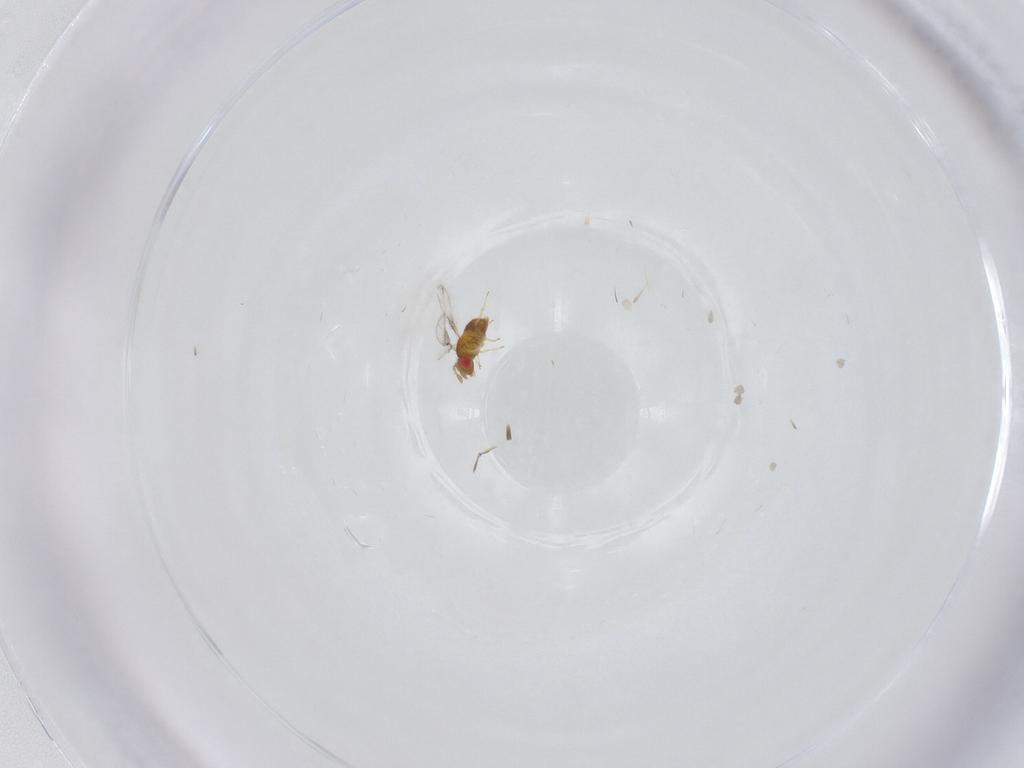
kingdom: Animalia
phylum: Arthropoda
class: Insecta
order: Hymenoptera
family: Trichogrammatidae
